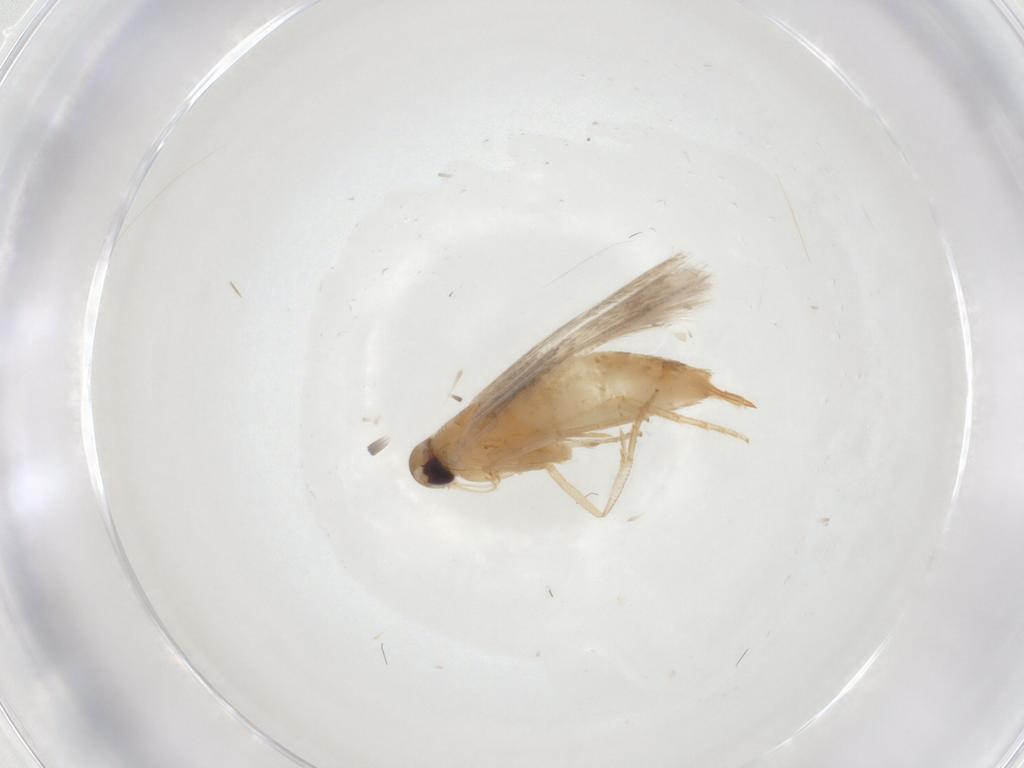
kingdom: Animalia
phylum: Arthropoda
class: Insecta
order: Lepidoptera
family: Cosmopterigidae
